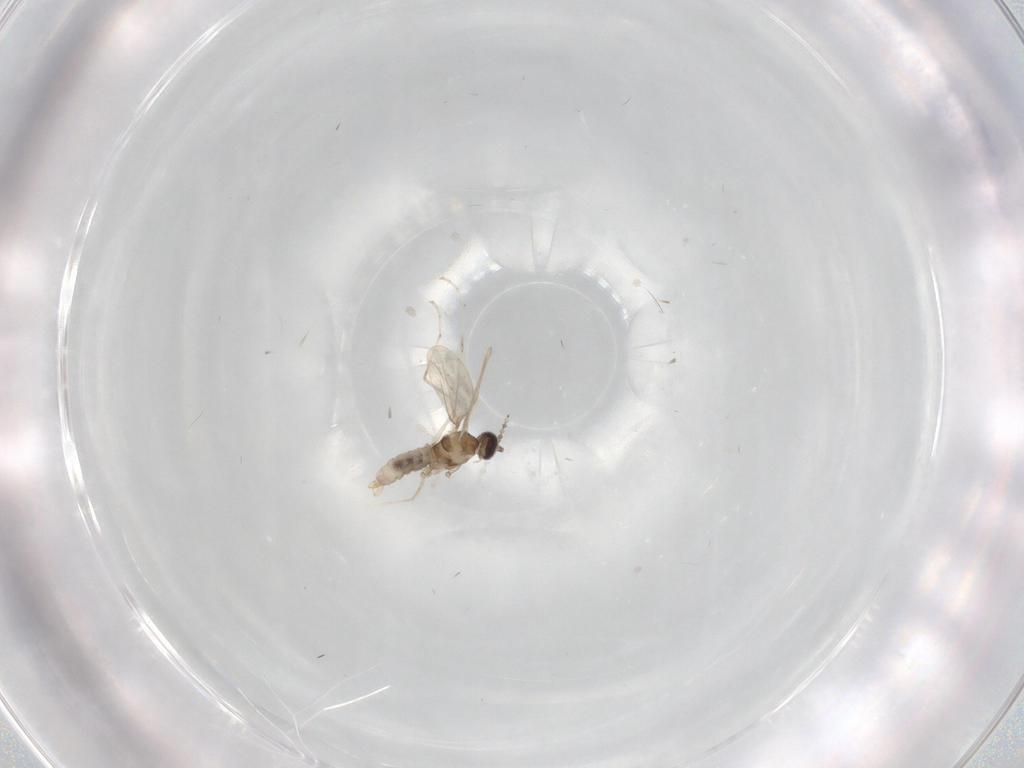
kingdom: Animalia
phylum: Arthropoda
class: Insecta
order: Diptera
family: Cecidomyiidae
